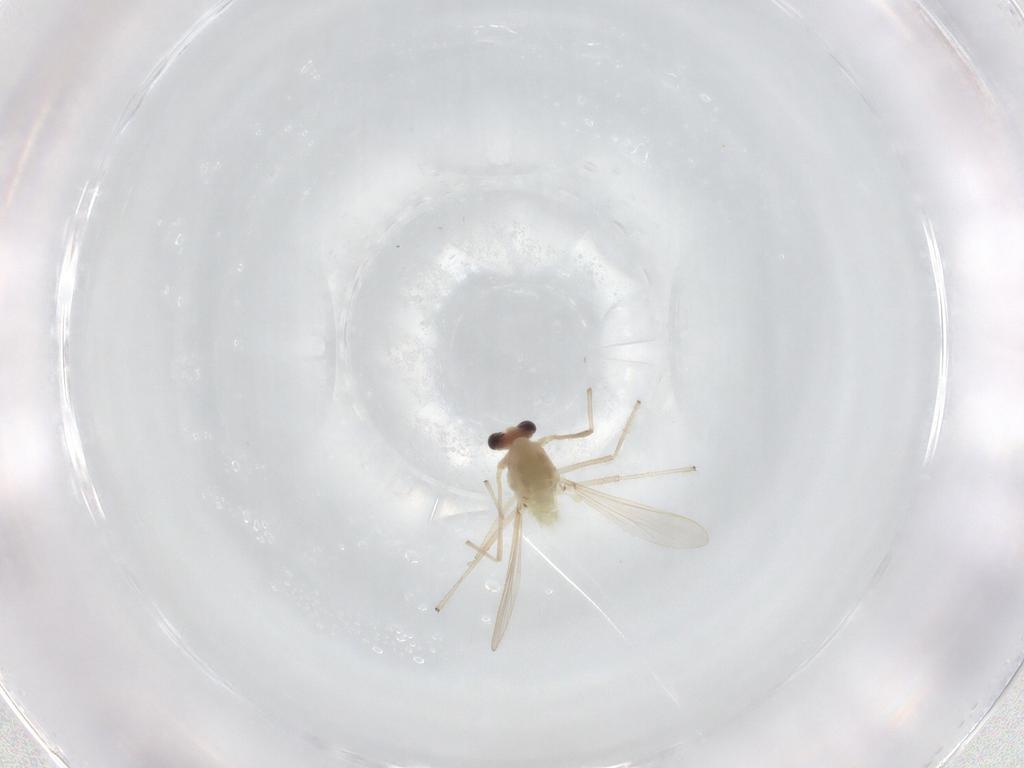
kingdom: Animalia
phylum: Arthropoda
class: Insecta
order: Diptera
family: Chironomidae
